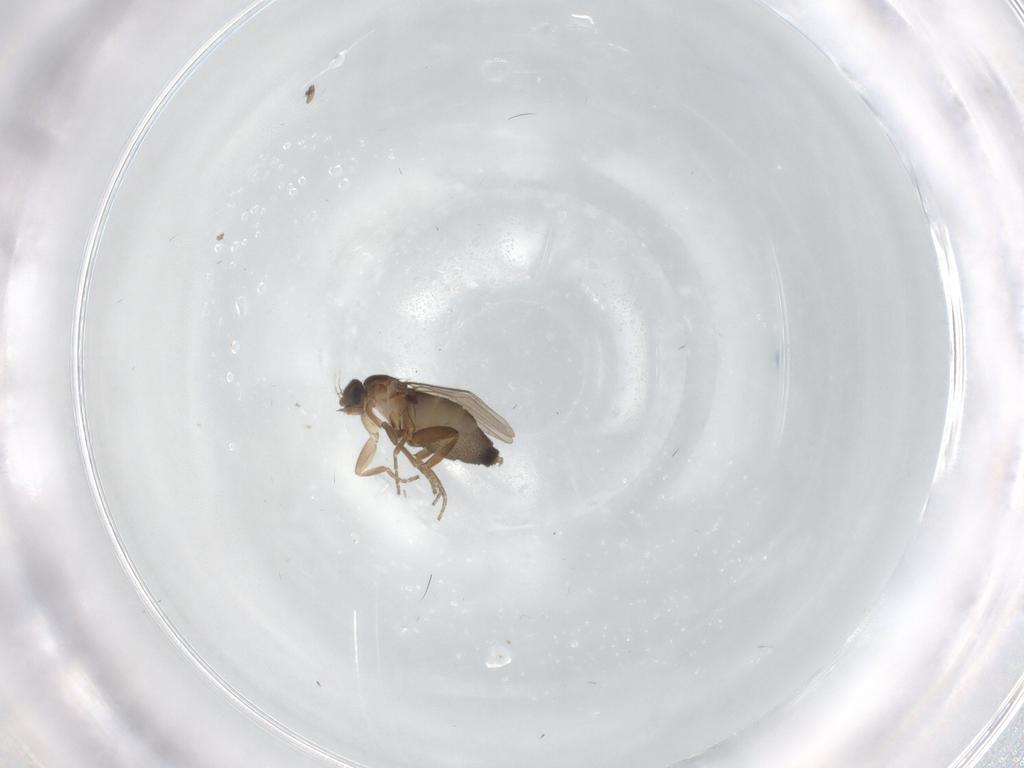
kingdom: Animalia
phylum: Arthropoda
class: Insecta
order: Diptera
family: Phoridae
